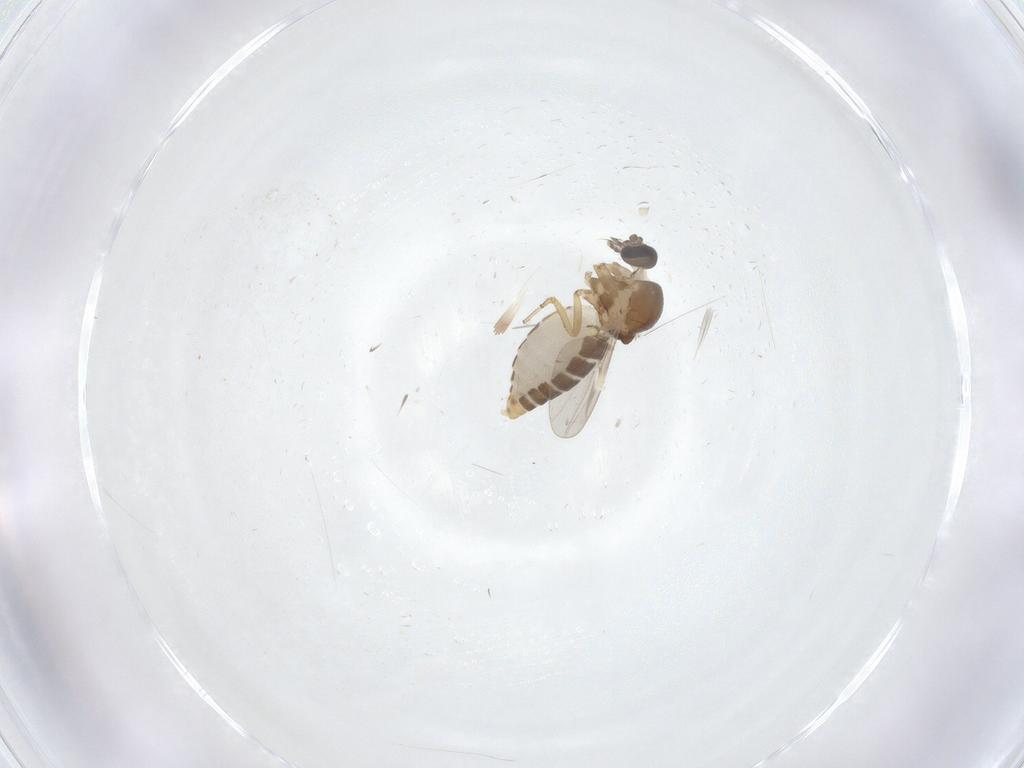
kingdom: Animalia
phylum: Arthropoda
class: Insecta
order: Diptera
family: Ceratopogonidae
